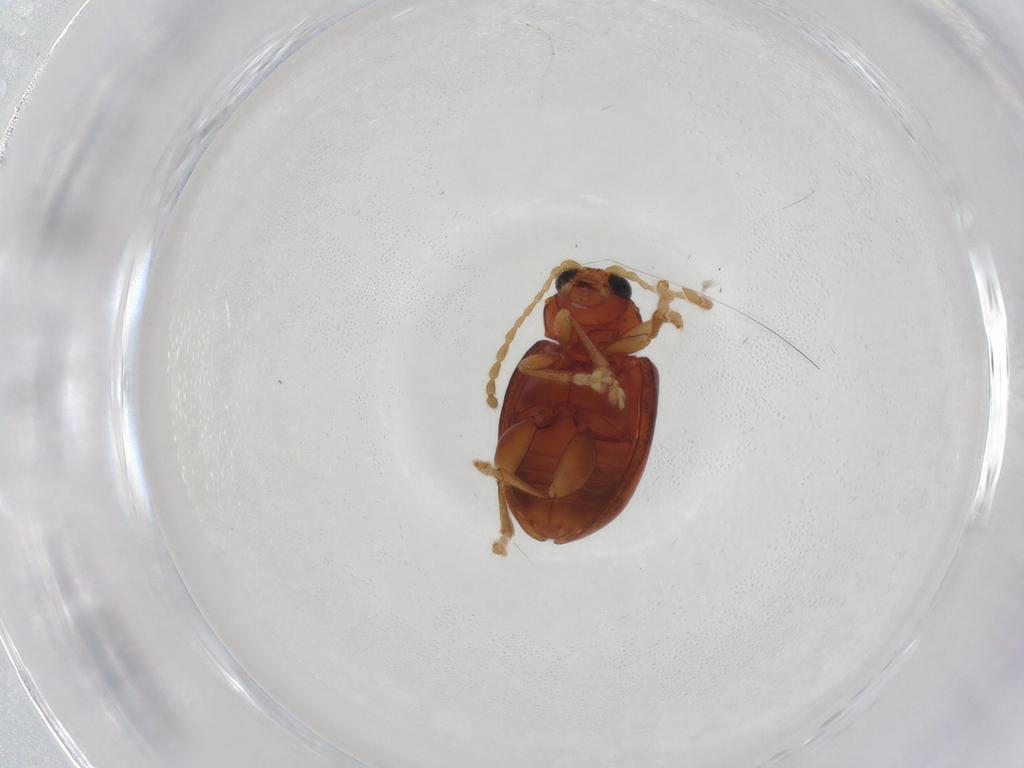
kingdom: Animalia
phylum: Arthropoda
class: Insecta
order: Coleoptera
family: Chrysomelidae
